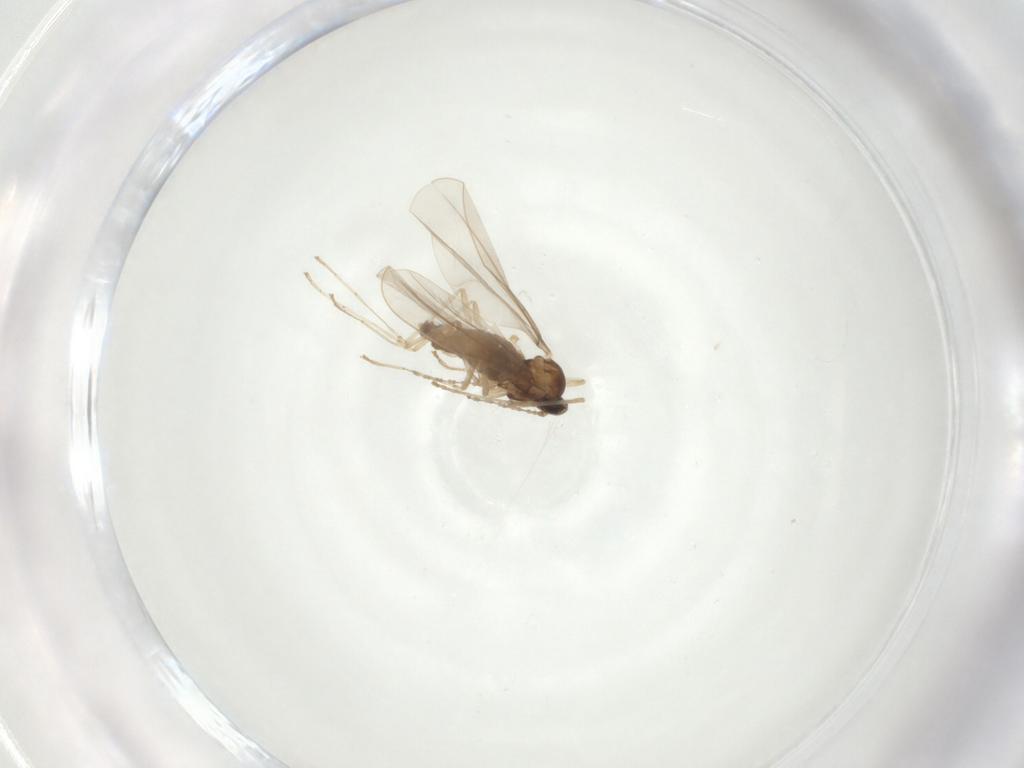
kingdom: Animalia
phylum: Arthropoda
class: Insecta
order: Diptera
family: Cecidomyiidae
